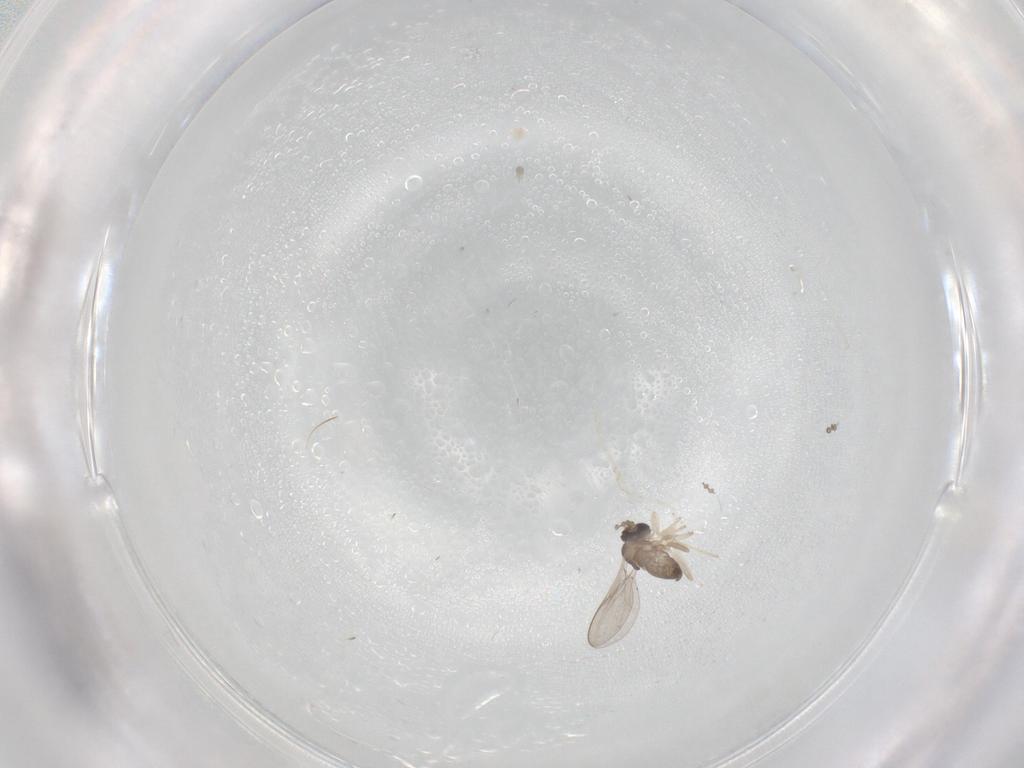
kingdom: Animalia
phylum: Arthropoda
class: Insecta
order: Diptera
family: Cecidomyiidae
